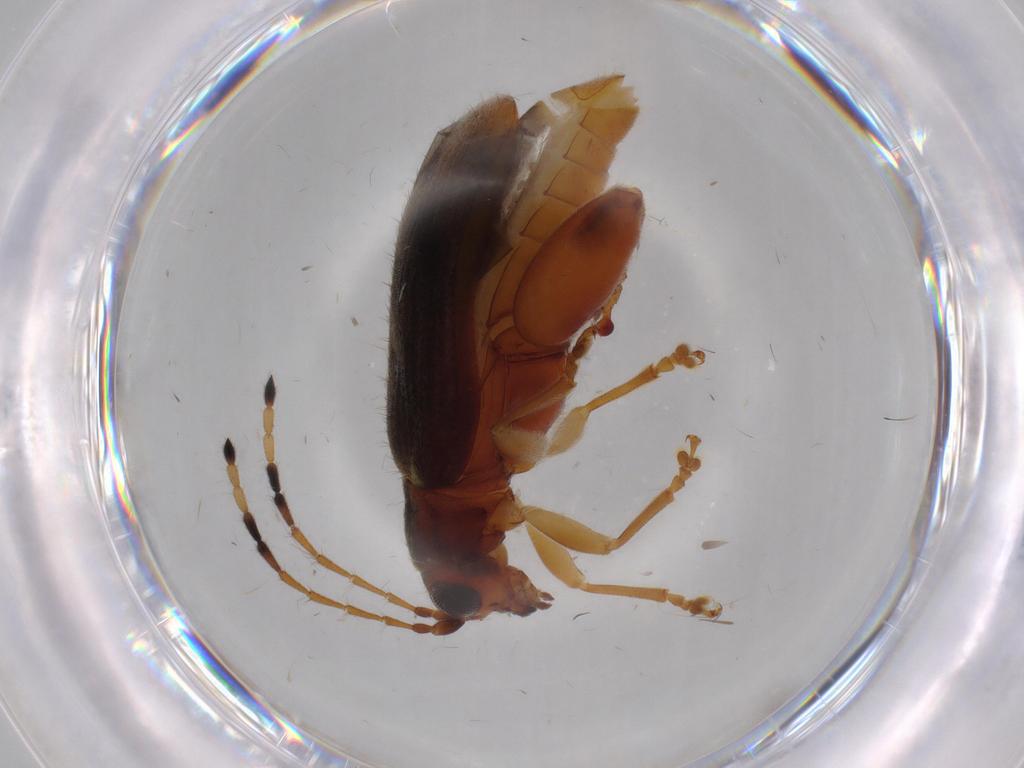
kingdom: Animalia
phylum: Arthropoda
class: Insecta
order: Coleoptera
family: Chrysomelidae
